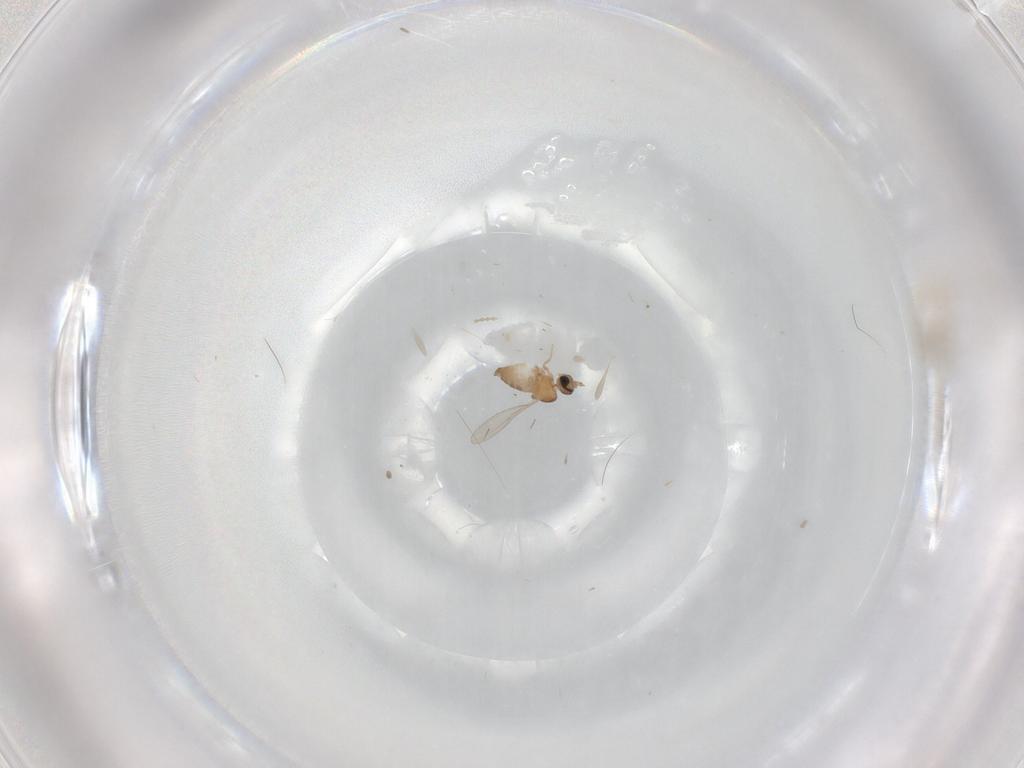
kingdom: Animalia
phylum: Arthropoda
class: Insecta
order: Diptera
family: Cecidomyiidae
